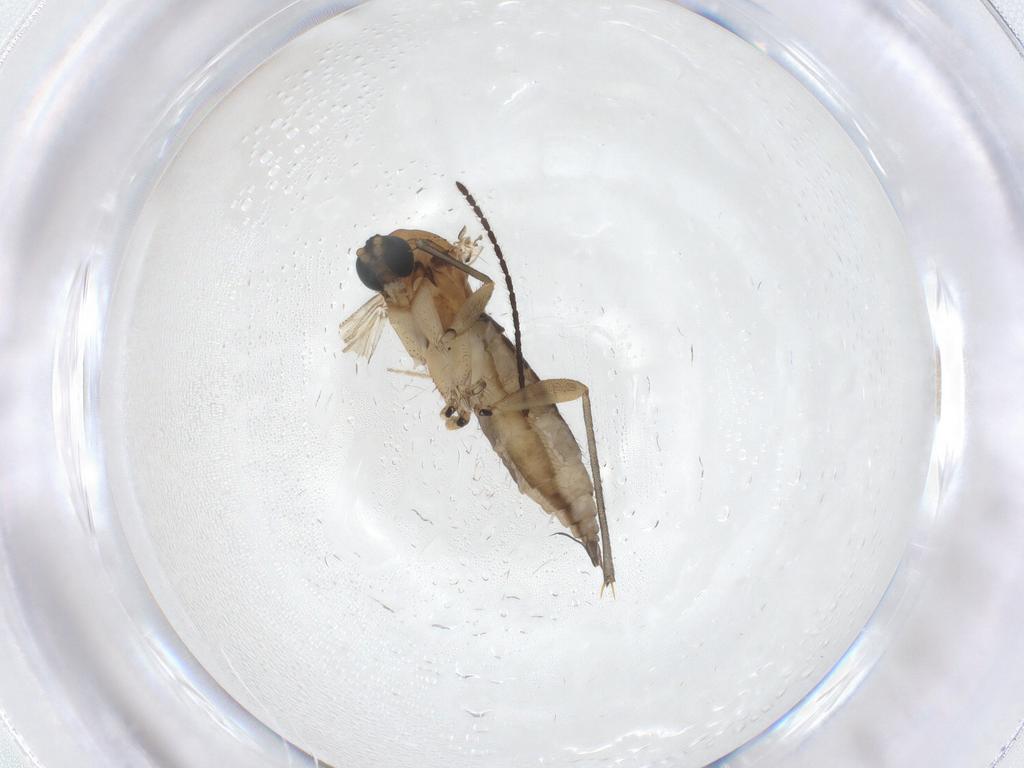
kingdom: Animalia
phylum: Arthropoda
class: Insecta
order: Diptera
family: Sciaridae
